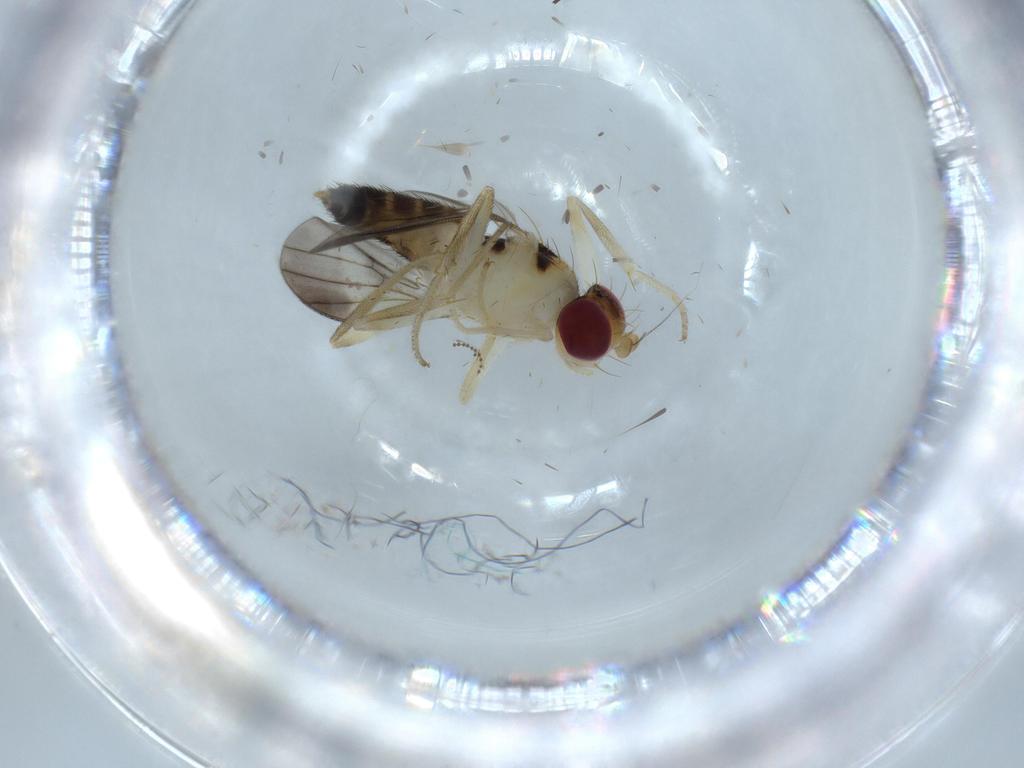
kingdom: Animalia
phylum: Arthropoda
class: Insecta
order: Diptera
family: Clusiidae
